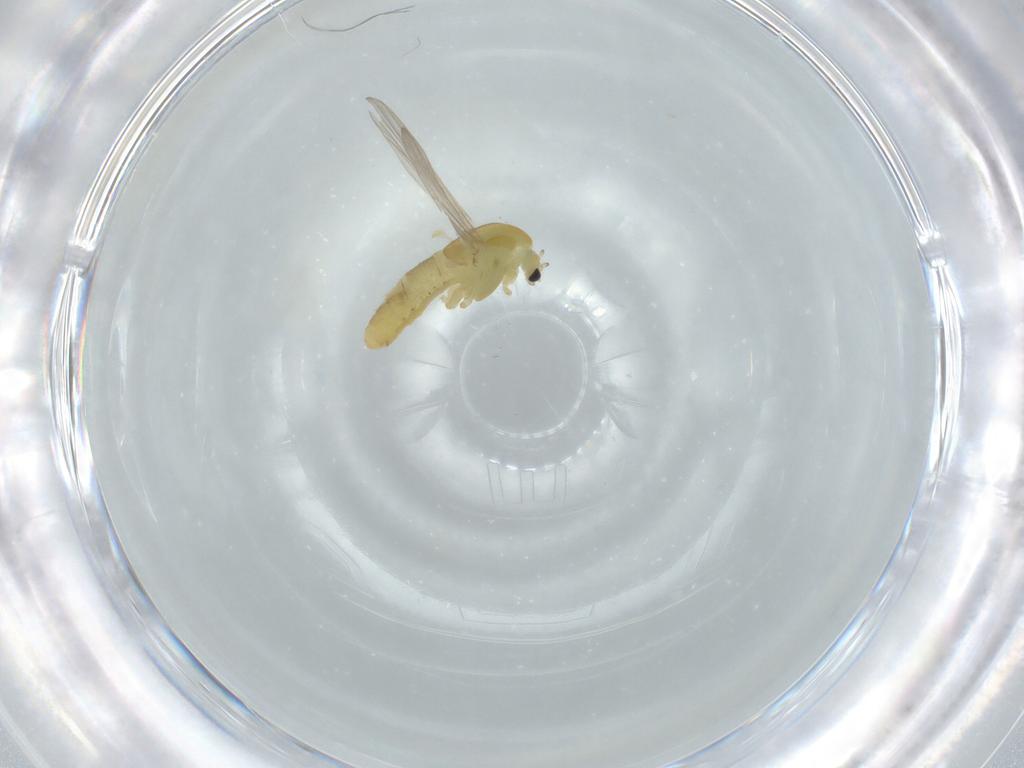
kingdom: Animalia
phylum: Arthropoda
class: Insecta
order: Diptera
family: Chironomidae
